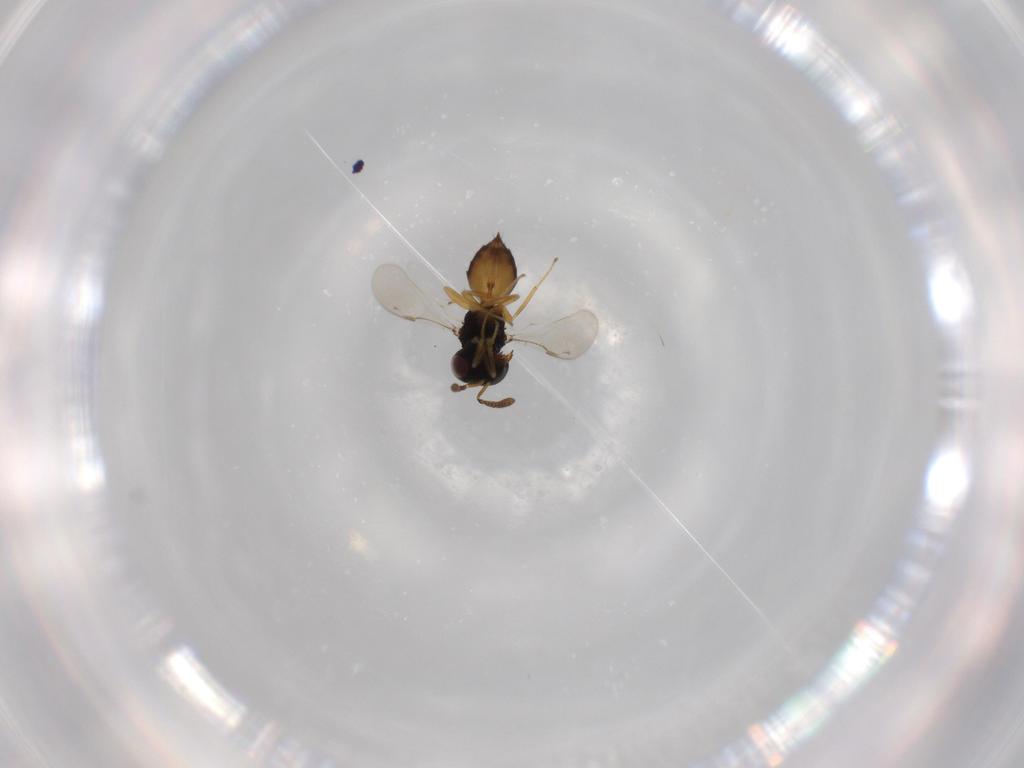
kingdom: Animalia
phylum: Arthropoda
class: Insecta
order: Hymenoptera
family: Pteromalidae
